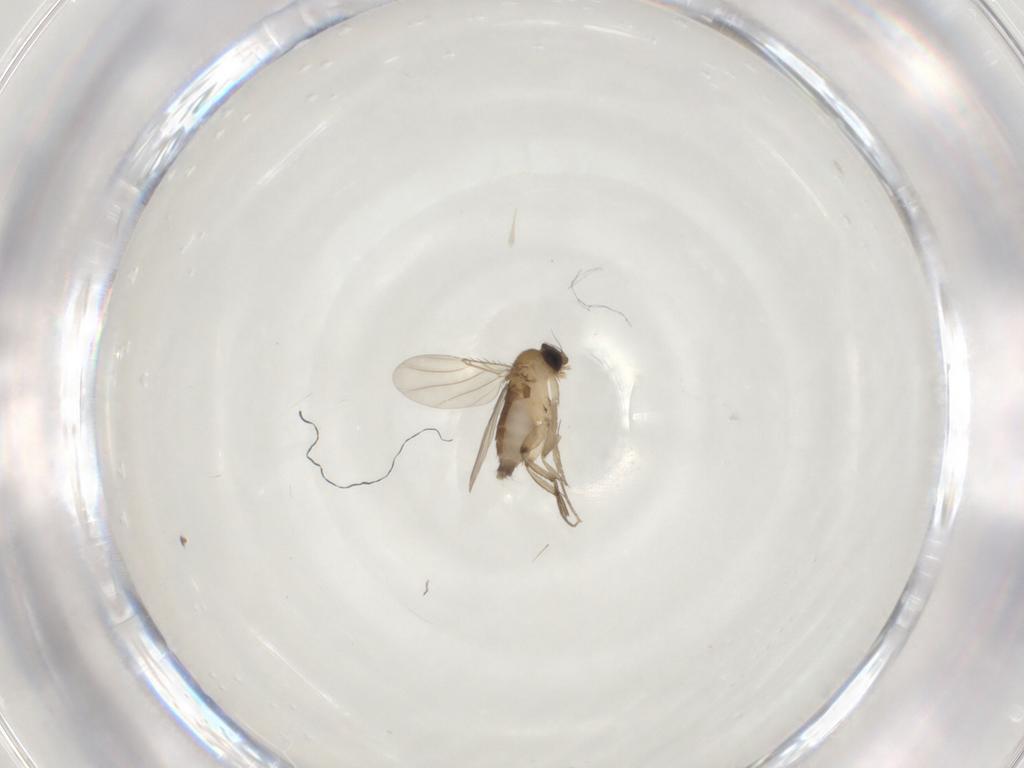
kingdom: Animalia
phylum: Arthropoda
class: Insecta
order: Diptera
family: Phoridae
